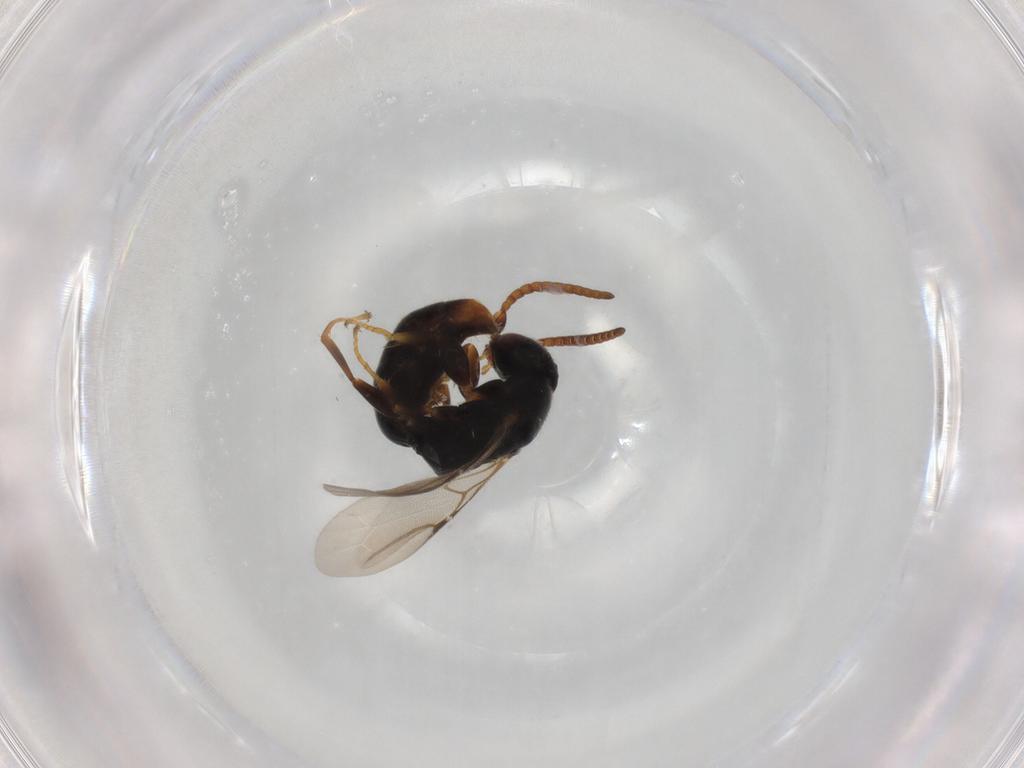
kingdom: Animalia
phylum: Arthropoda
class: Insecta
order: Hymenoptera
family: Bethylidae
